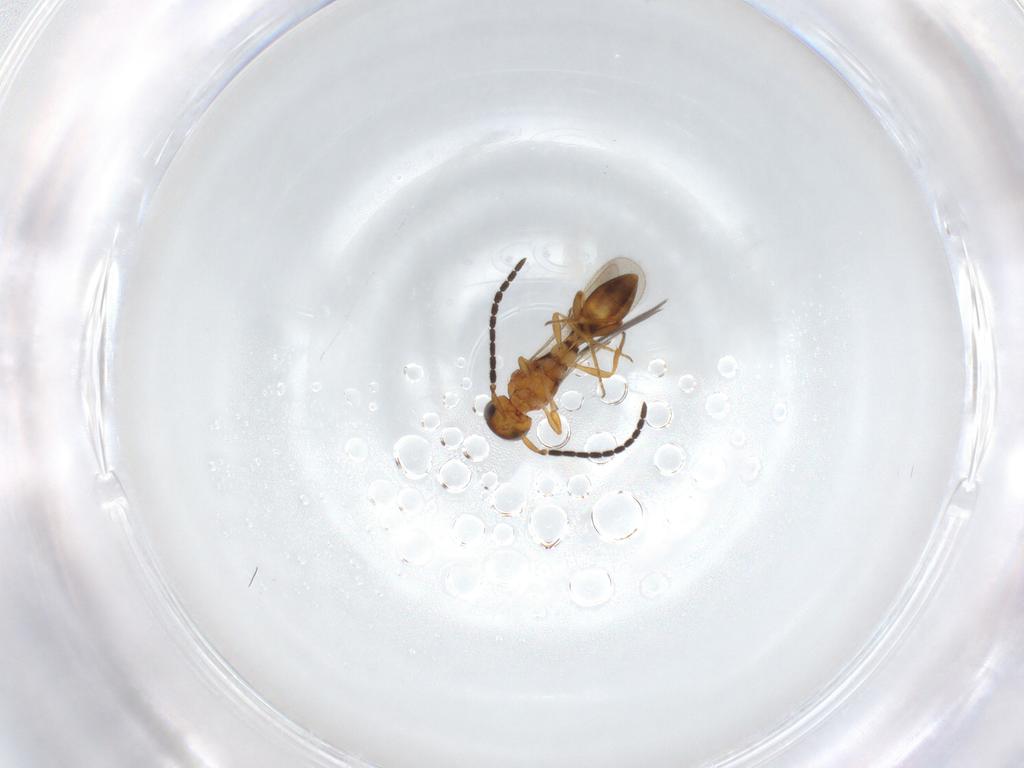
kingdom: Animalia
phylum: Arthropoda
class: Insecta
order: Hymenoptera
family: Scelionidae
